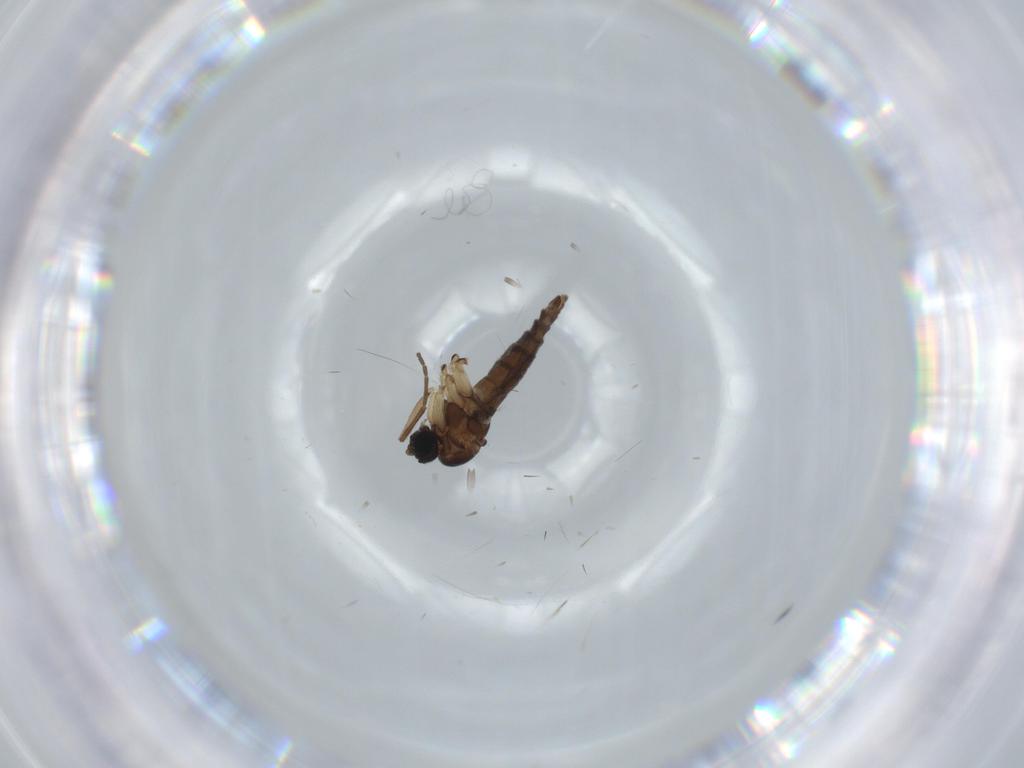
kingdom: Animalia
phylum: Arthropoda
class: Insecta
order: Diptera
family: Sciaridae
